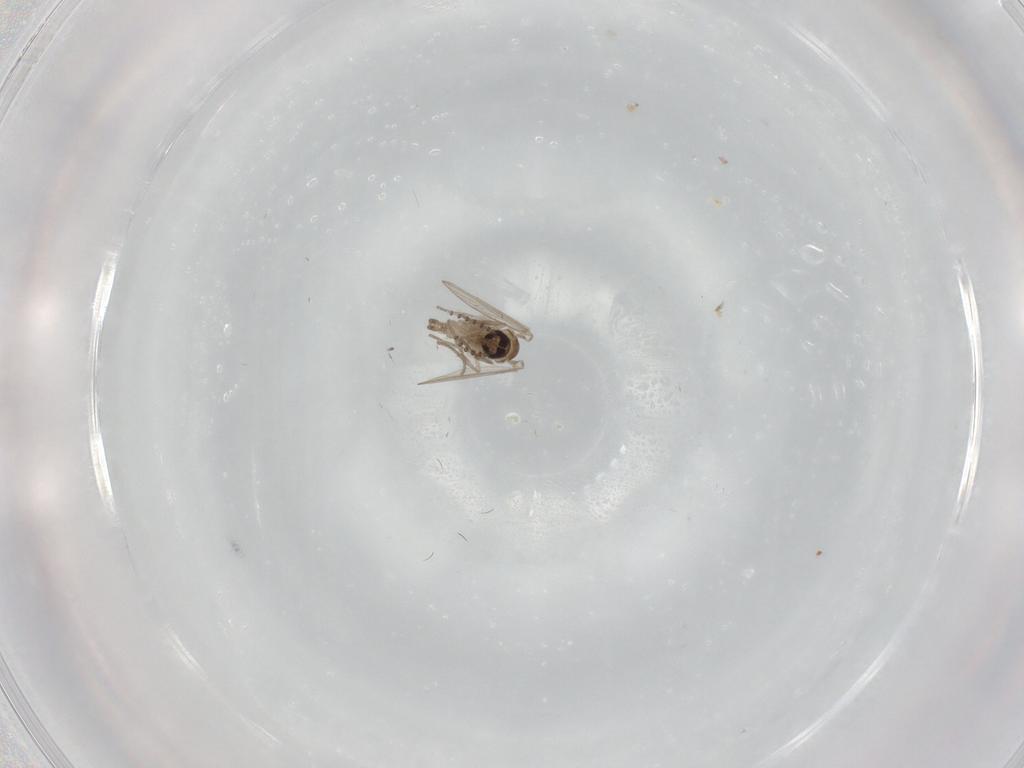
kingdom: Animalia
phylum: Arthropoda
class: Insecta
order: Diptera
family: Psychodidae
